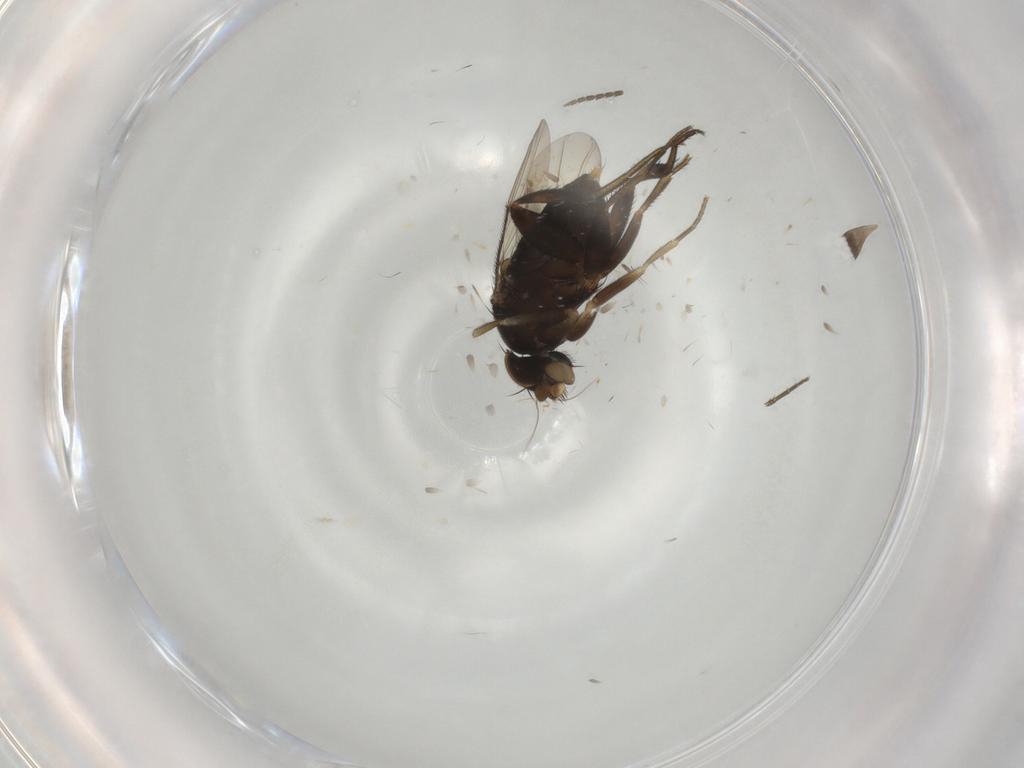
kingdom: Animalia
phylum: Arthropoda
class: Insecta
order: Diptera
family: Phoridae
